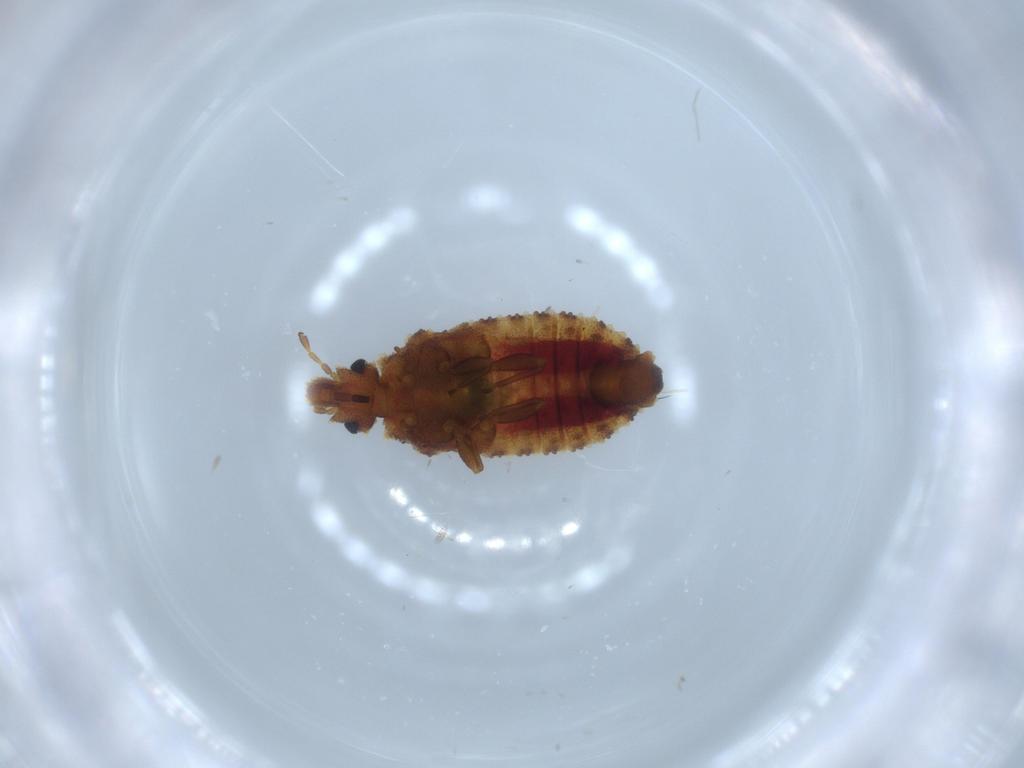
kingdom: Animalia
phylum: Arthropoda
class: Insecta
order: Hemiptera
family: Aradidae
